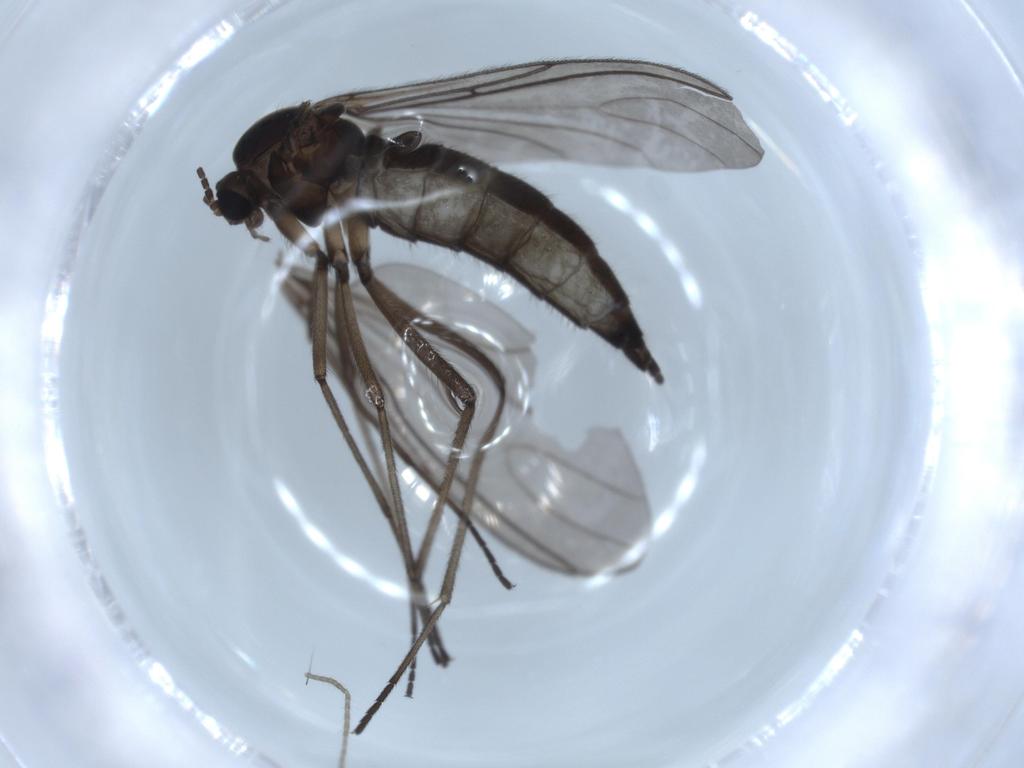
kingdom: Animalia
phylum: Arthropoda
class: Insecta
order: Diptera
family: Sciaridae
